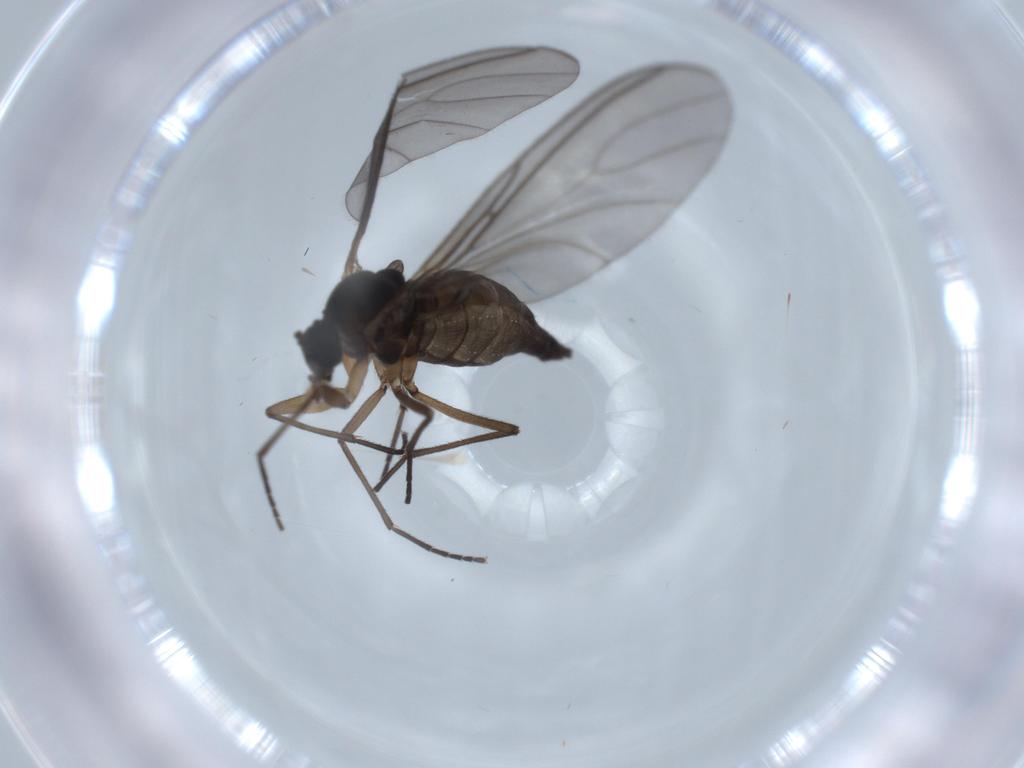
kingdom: Animalia
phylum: Arthropoda
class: Insecta
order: Diptera
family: Sciaridae
